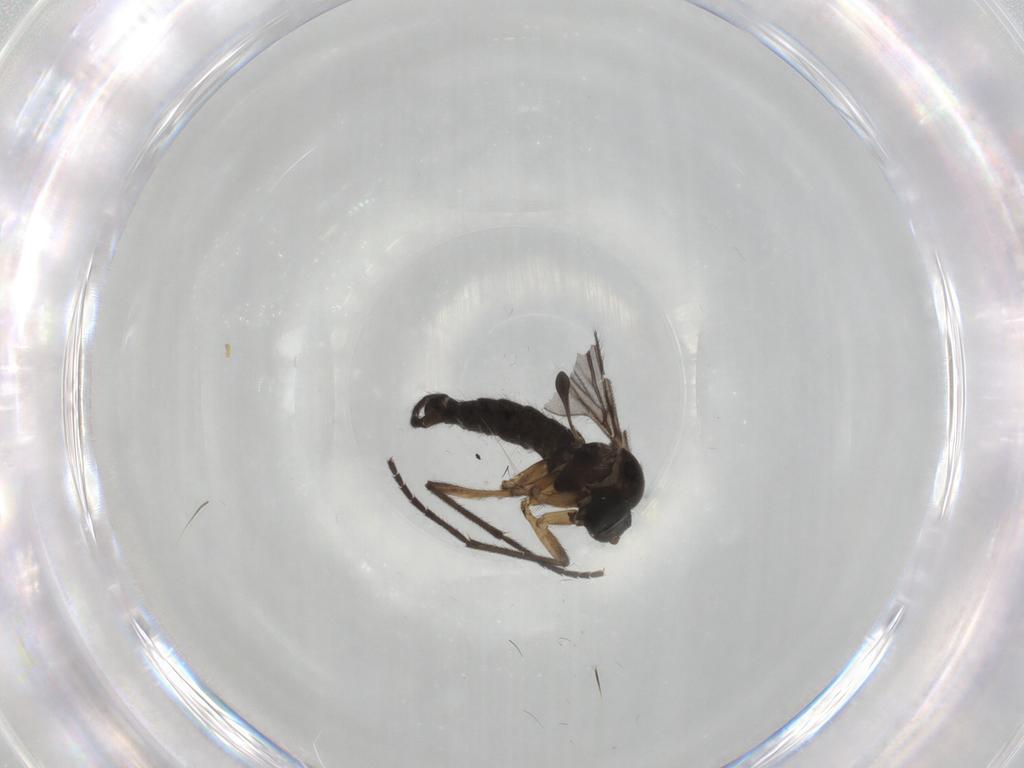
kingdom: Animalia
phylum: Arthropoda
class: Insecta
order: Diptera
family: Sciaridae
